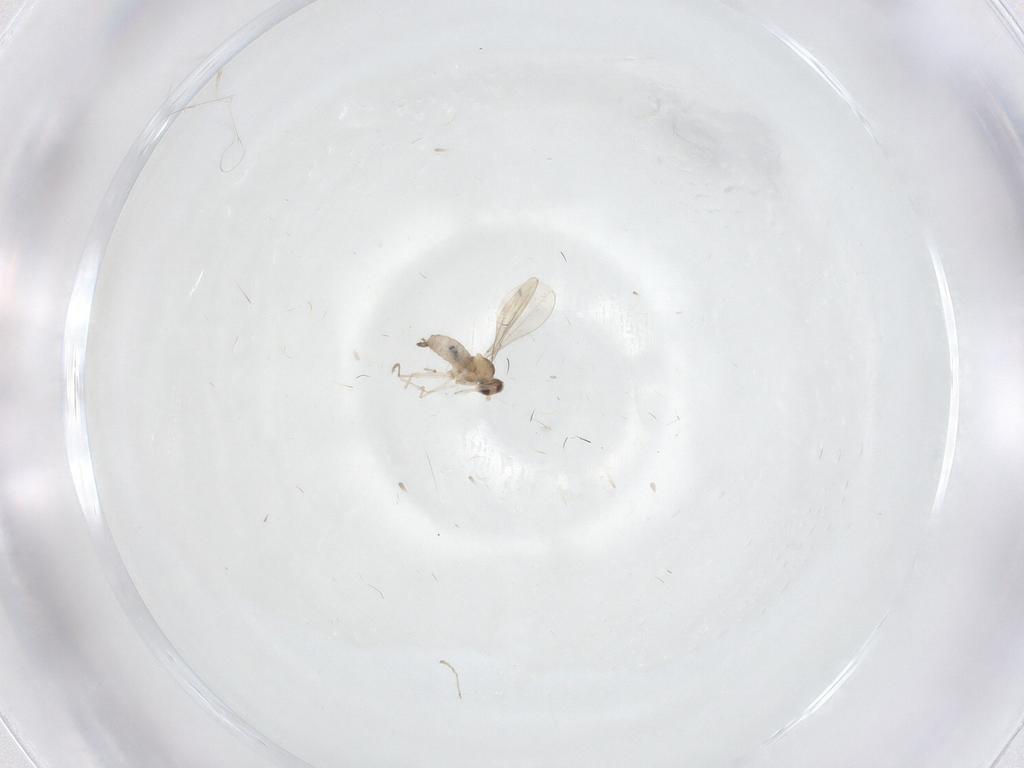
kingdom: Animalia
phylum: Arthropoda
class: Insecta
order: Diptera
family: Cecidomyiidae
